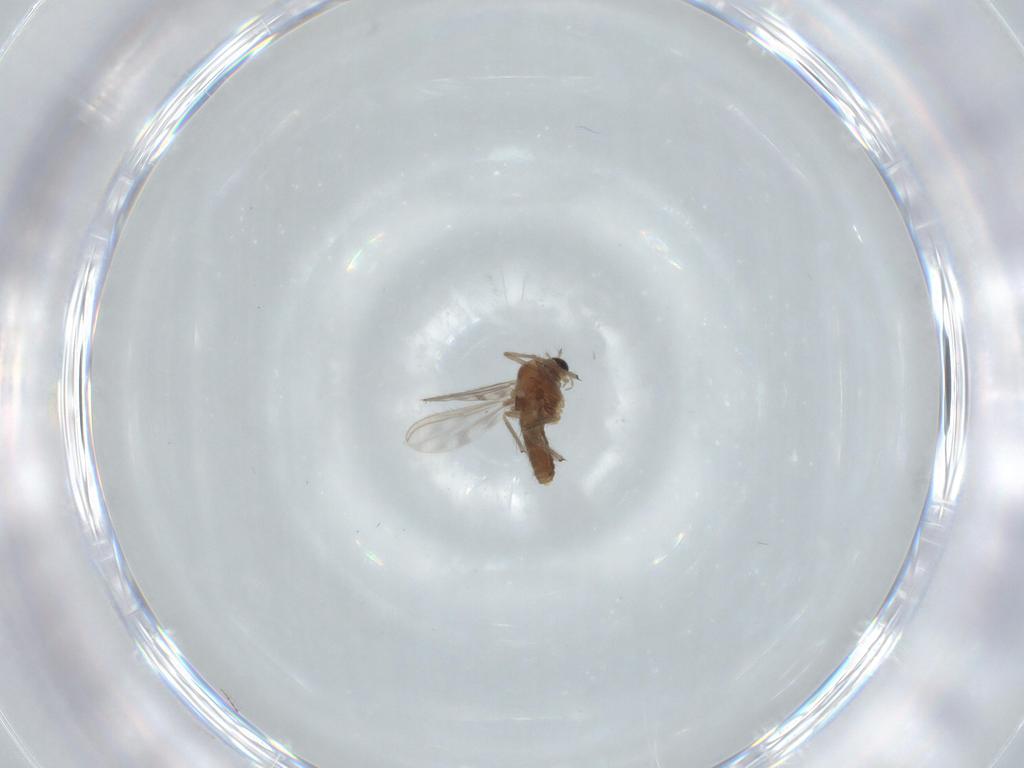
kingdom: Animalia
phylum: Arthropoda
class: Insecta
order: Diptera
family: Chironomidae
